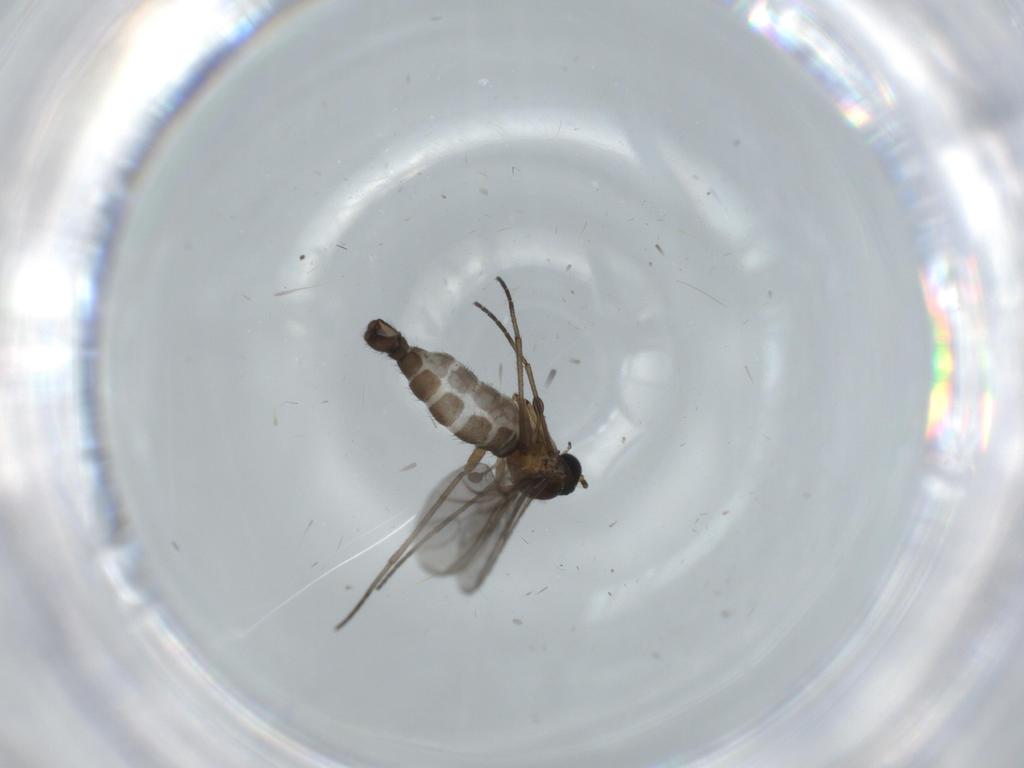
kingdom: Animalia
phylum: Arthropoda
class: Insecta
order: Diptera
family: Sciaridae
